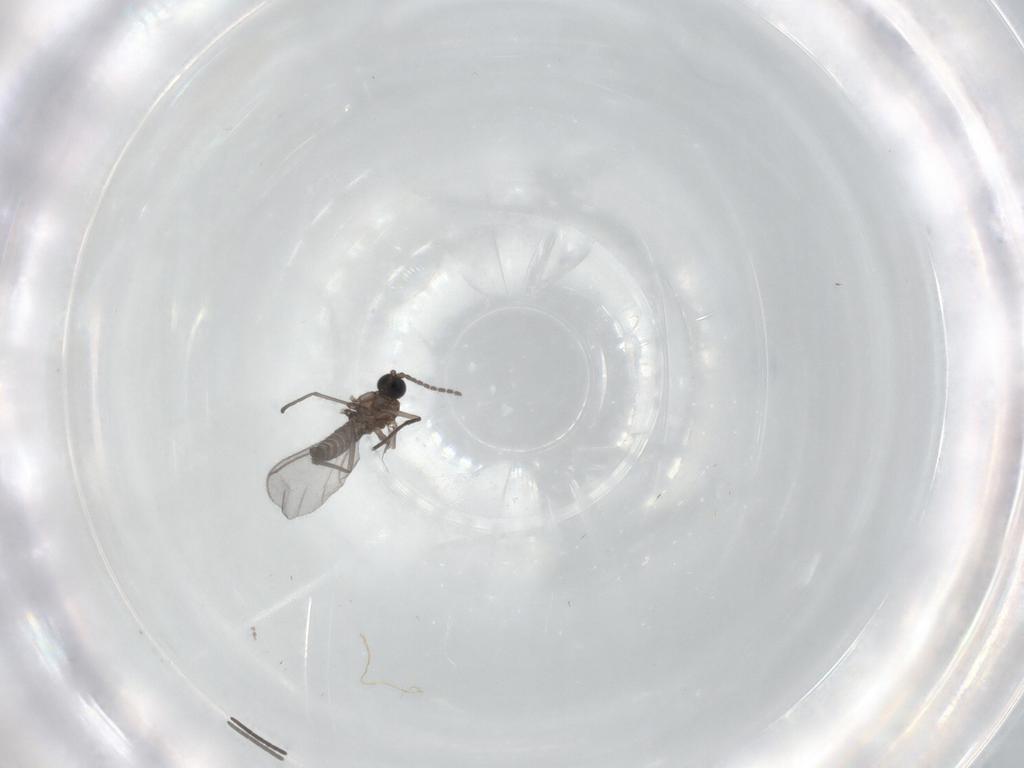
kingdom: Animalia
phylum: Arthropoda
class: Insecta
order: Diptera
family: Sciaridae
